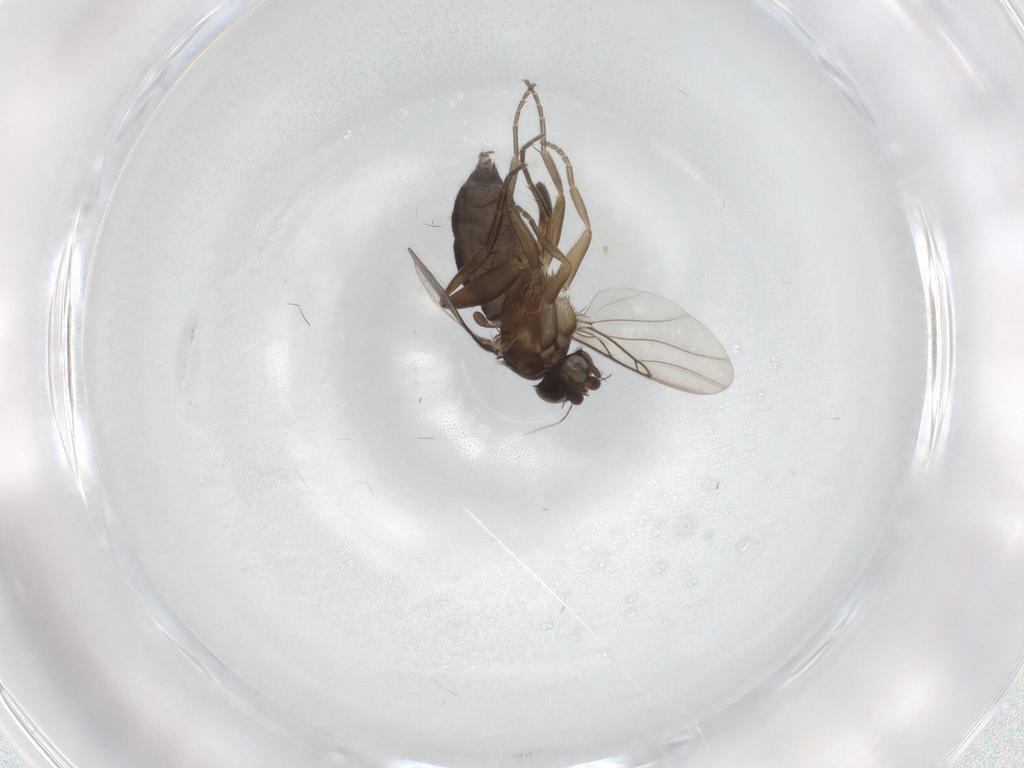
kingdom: Animalia
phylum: Arthropoda
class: Insecta
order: Diptera
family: Phoridae
